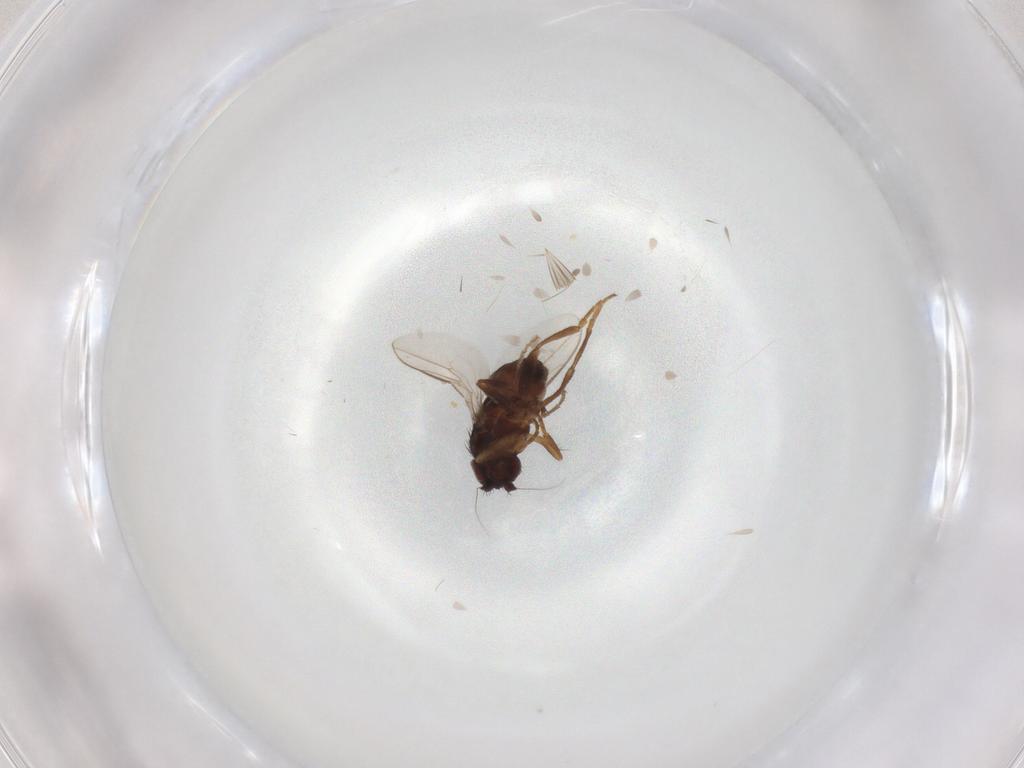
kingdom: Animalia
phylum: Arthropoda
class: Insecta
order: Diptera
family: Sphaeroceridae
